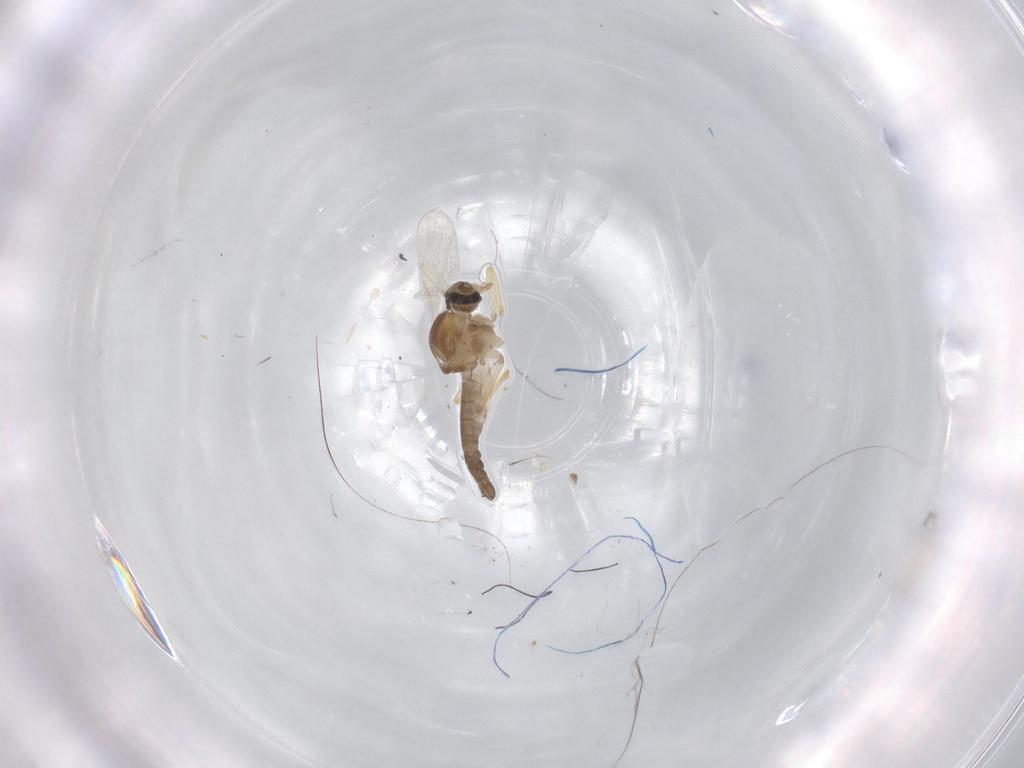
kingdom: Animalia
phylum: Arthropoda
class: Insecta
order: Diptera
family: Ceratopogonidae
